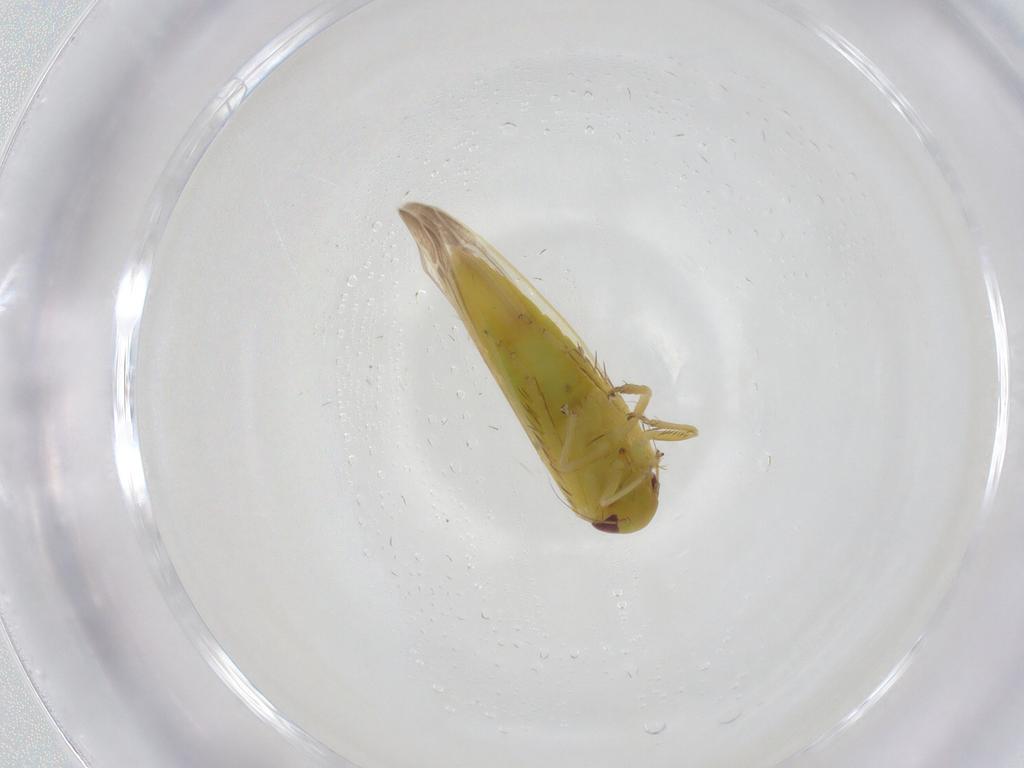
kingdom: Animalia
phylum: Arthropoda
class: Insecta
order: Hemiptera
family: Cicadellidae
